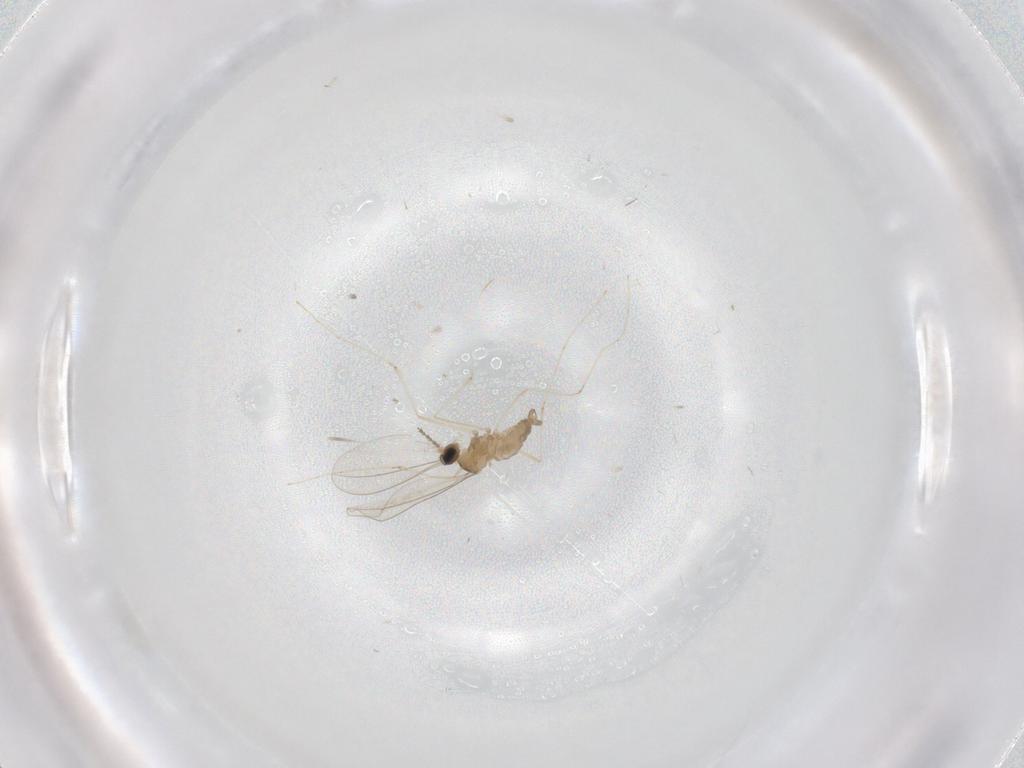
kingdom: Animalia
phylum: Arthropoda
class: Insecta
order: Diptera
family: Cecidomyiidae
